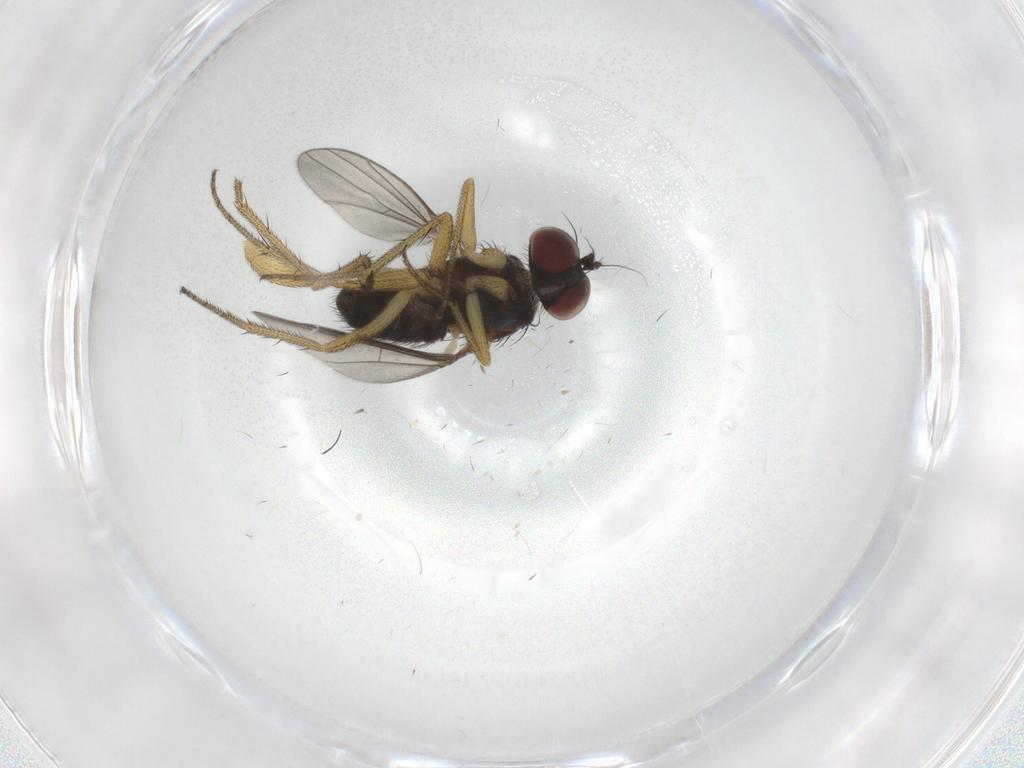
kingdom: Animalia
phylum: Arthropoda
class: Insecta
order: Diptera
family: Dolichopodidae
